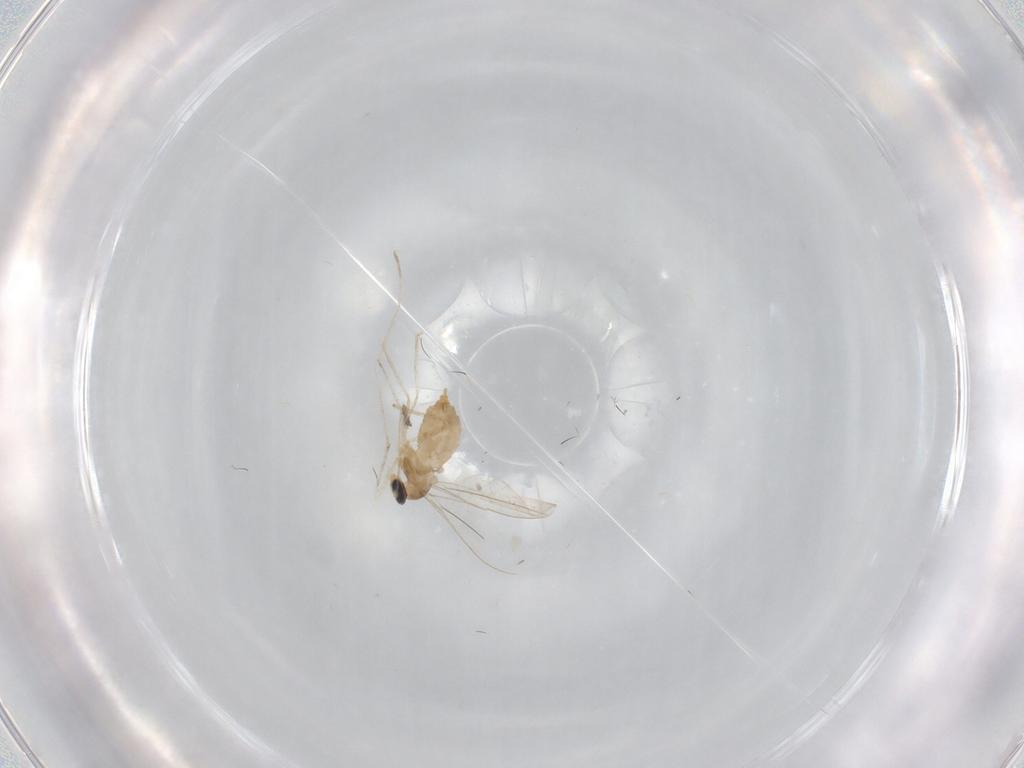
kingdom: Animalia
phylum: Arthropoda
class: Insecta
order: Diptera
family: Cecidomyiidae
